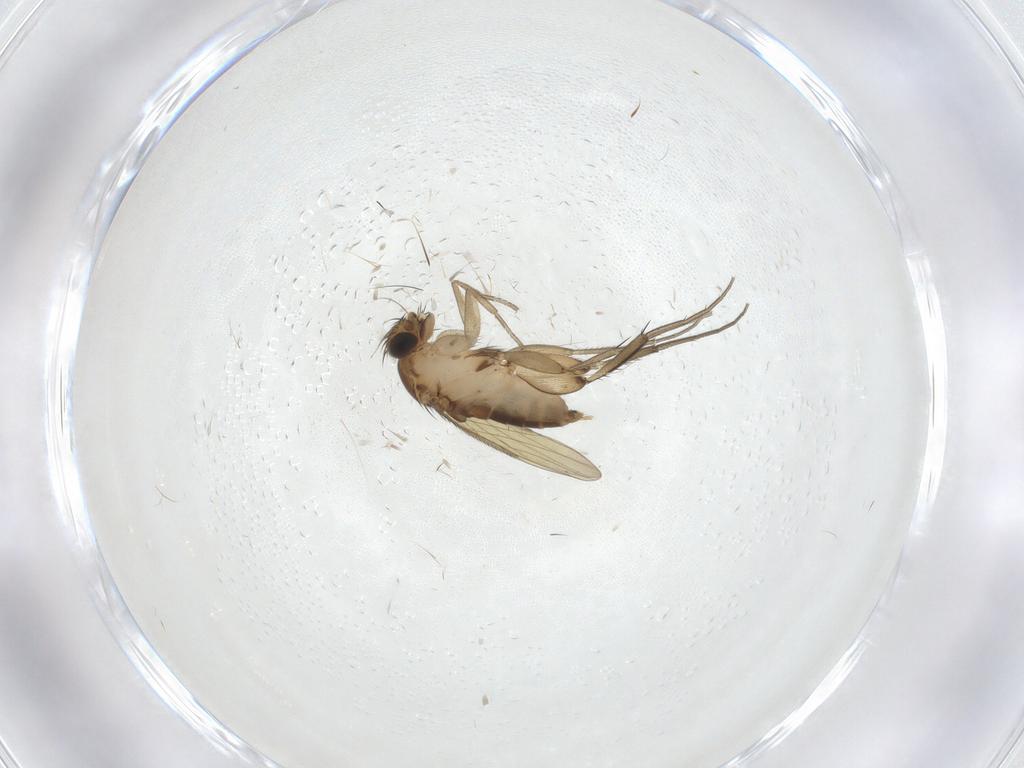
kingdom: Animalia
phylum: Arthropoda
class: Insecta
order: Diptera
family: Phoridae
